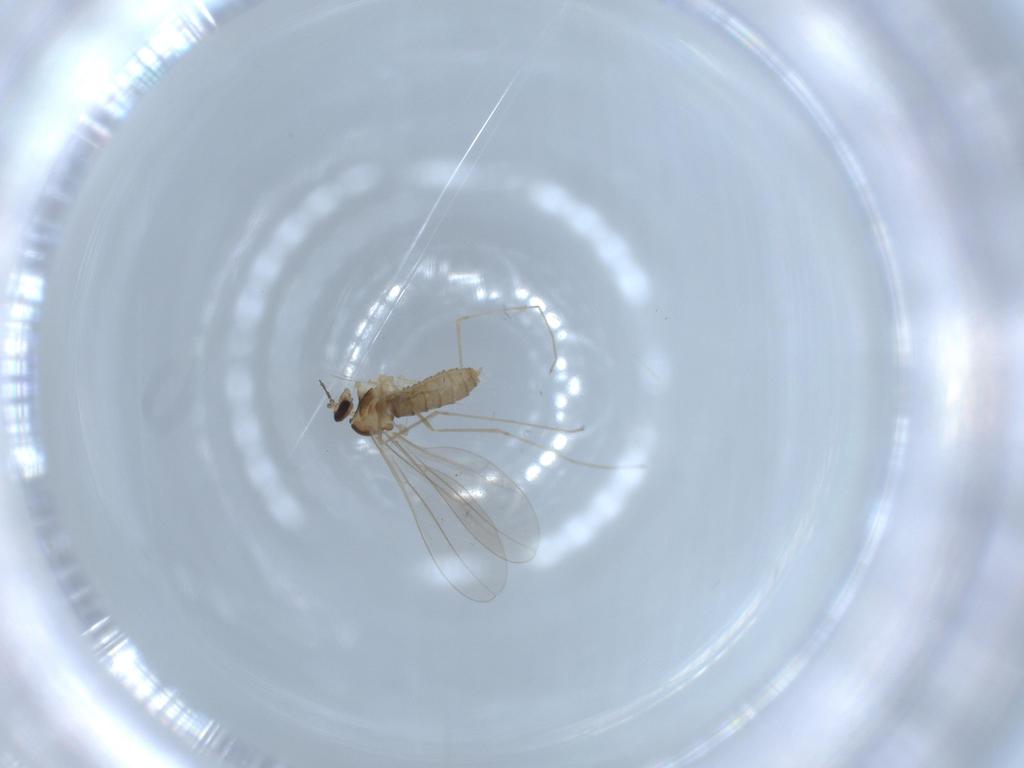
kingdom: Animalia
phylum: Arthropoda
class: Insecta
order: Diptera
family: Cecidomyiidae
